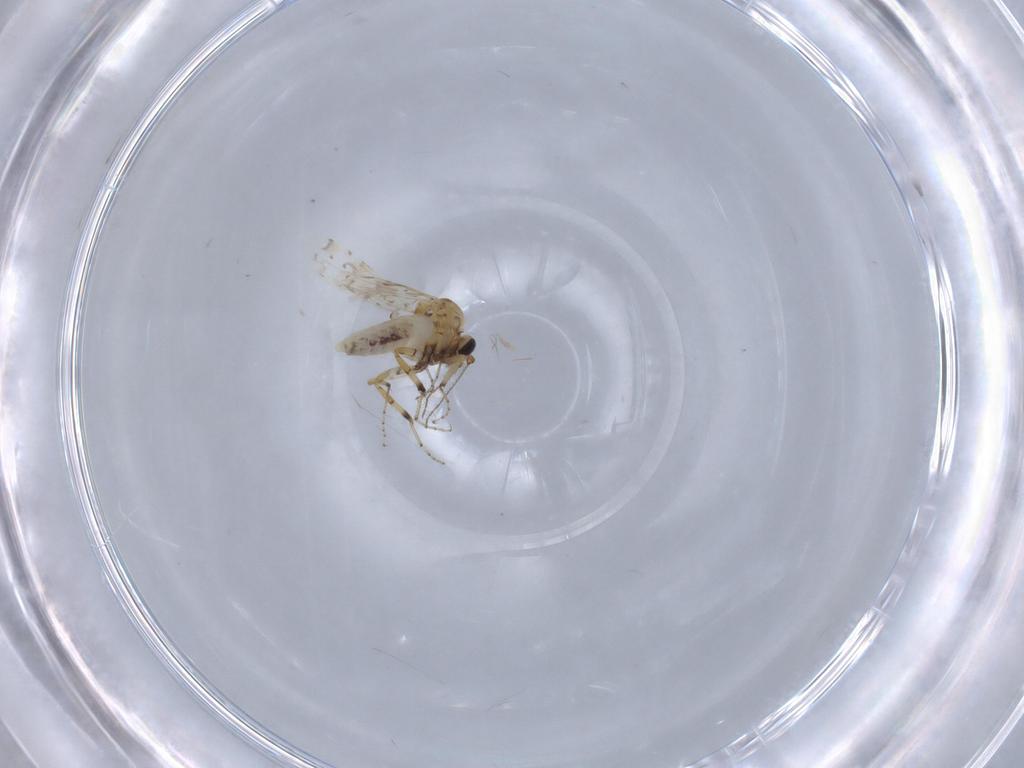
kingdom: Animalia
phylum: Arthropoda
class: Insecta
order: Diptera
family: Ceratopogonidae
